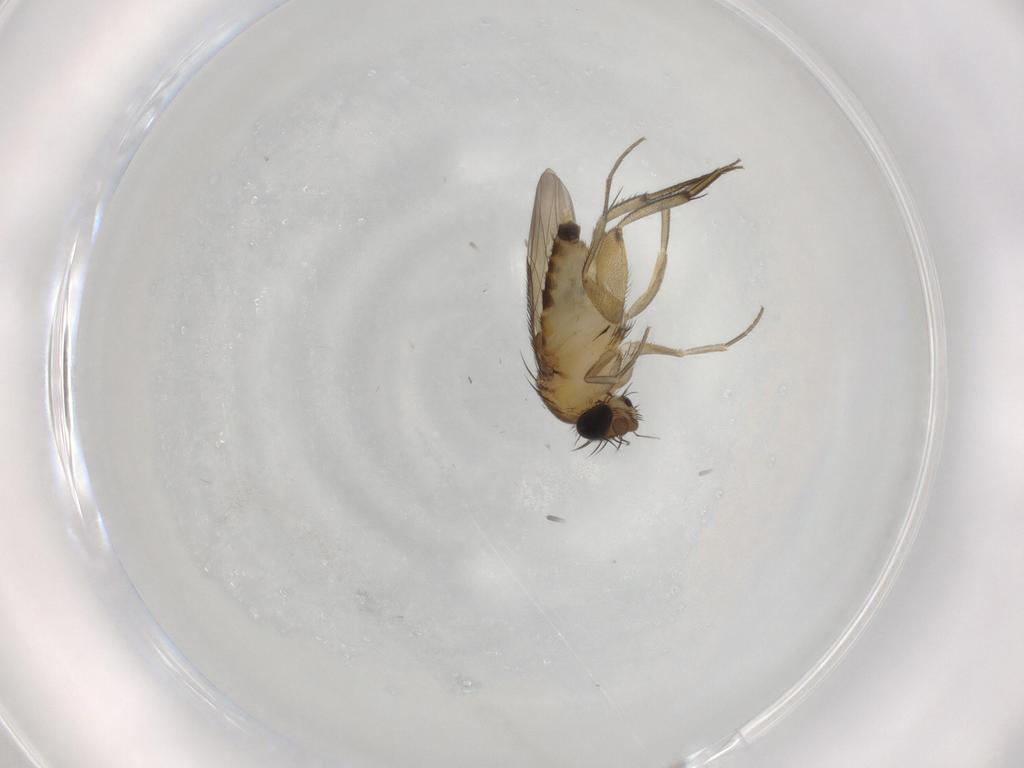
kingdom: Animalia
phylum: Arthropoda
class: Insecta
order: Diptera
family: Phoridae
